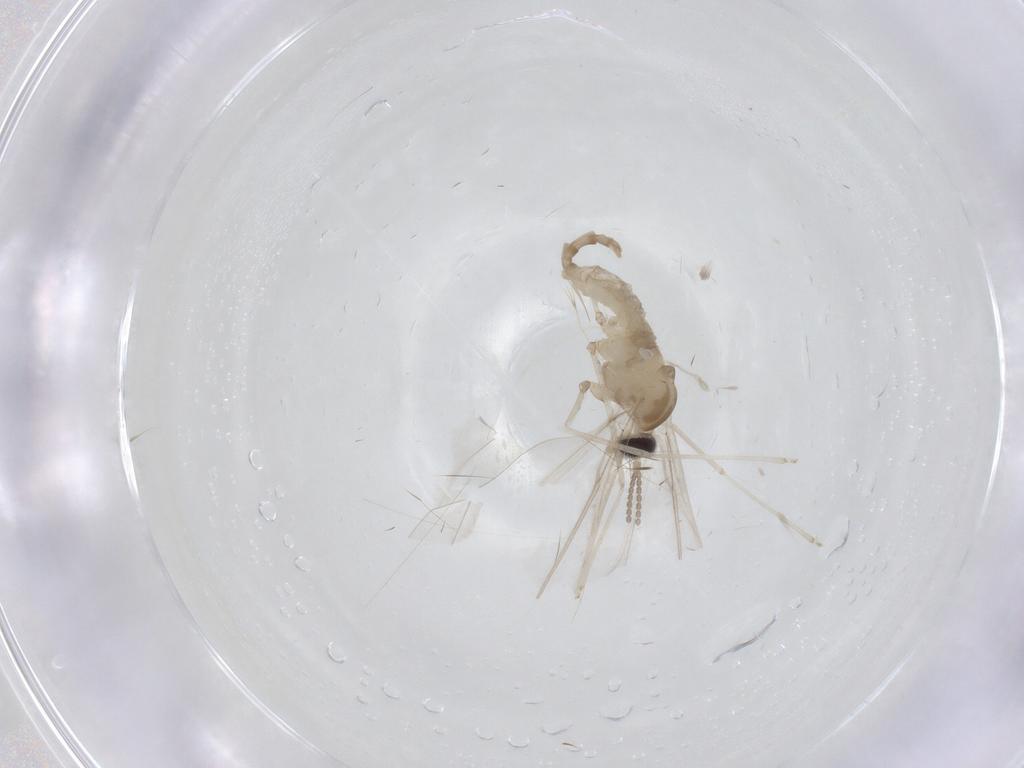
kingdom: Animalia
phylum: Arthropoda
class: Insecta
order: Diptera
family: Cecidomyiidae
